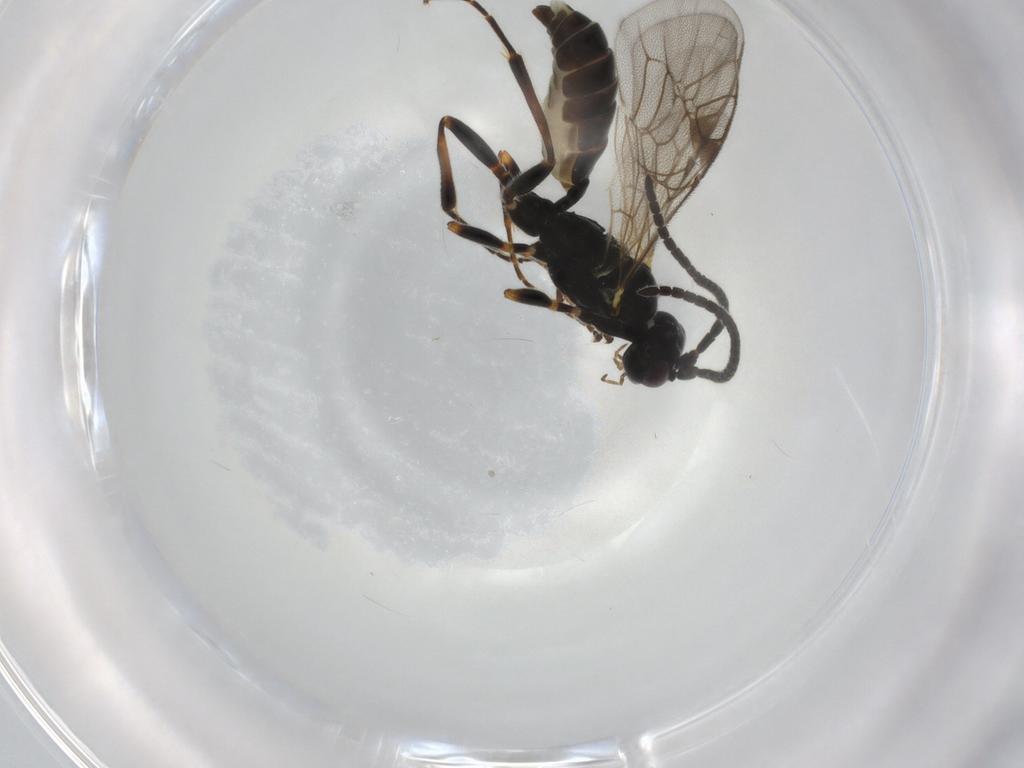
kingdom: Animalia
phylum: Arthropoda
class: Insecta
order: Hymenoptera
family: Ichneumonidae
